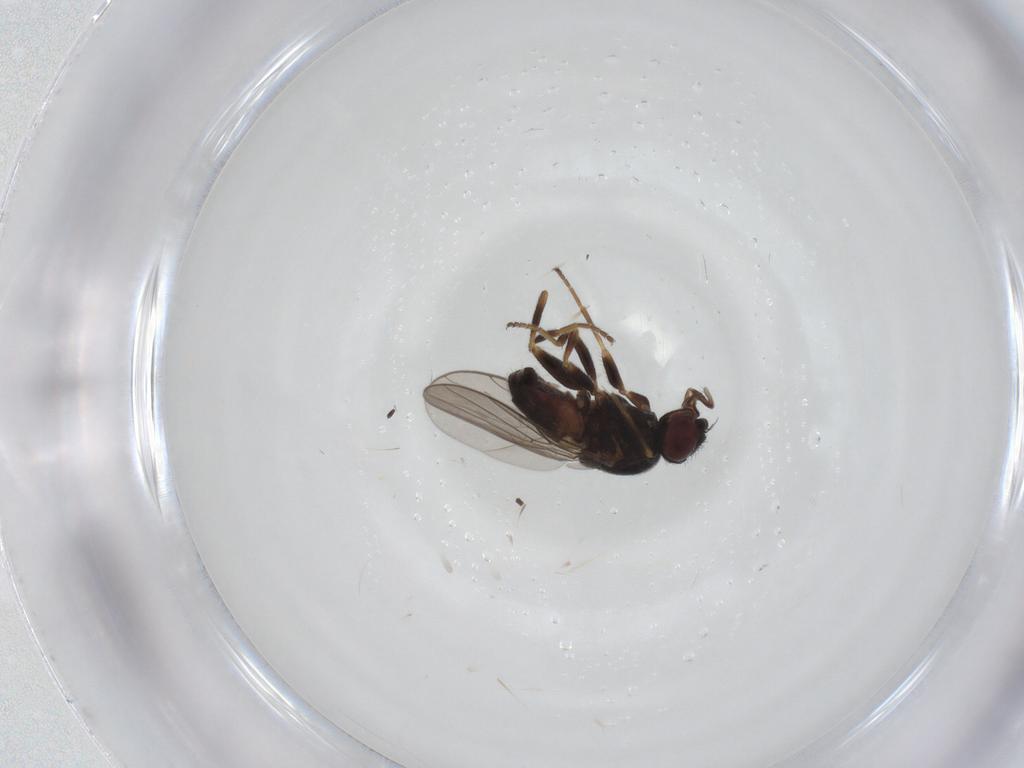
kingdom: Animalia
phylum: Arthropoda
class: Insecta
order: Diptera
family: Chloropidae
